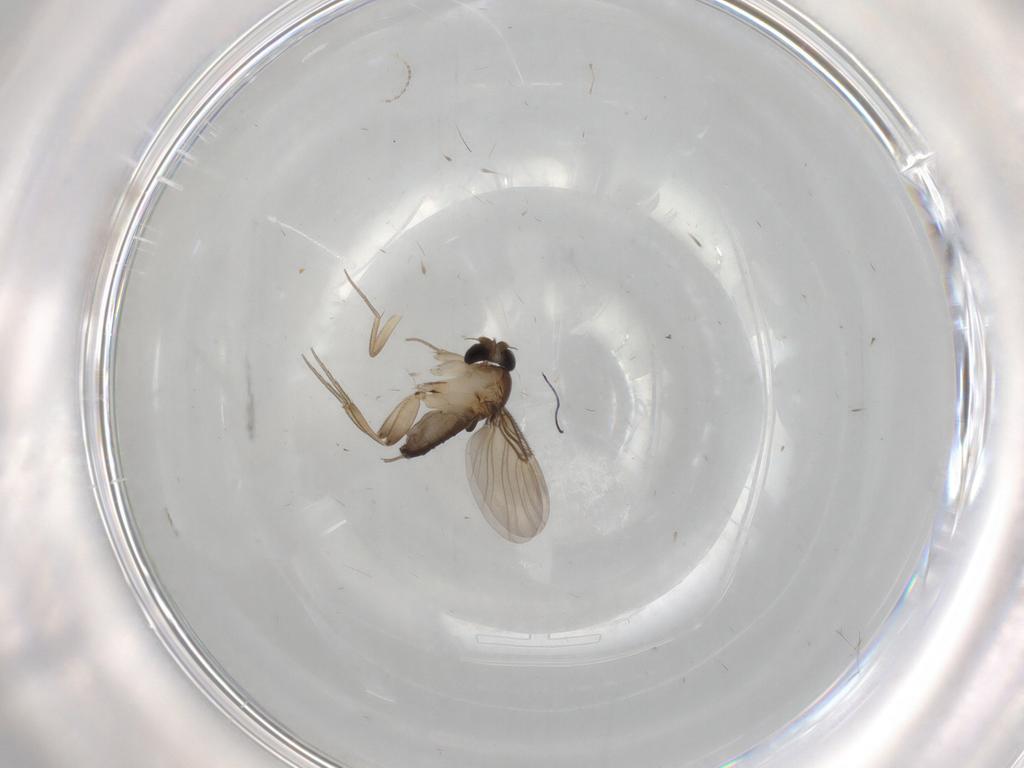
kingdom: Animalia
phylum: Arthropoda
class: Insecta
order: Diptera
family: Phoridae
